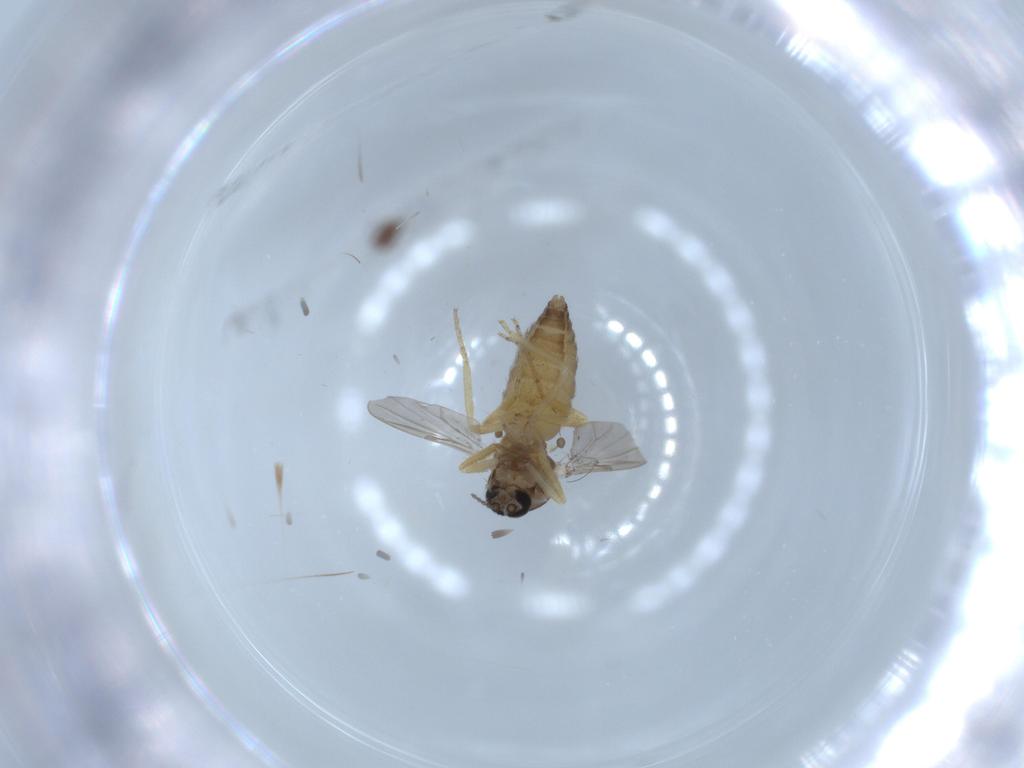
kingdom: Animalia
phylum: Arthropoda
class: Insecta
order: Diptera
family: Ceratopogonidae
